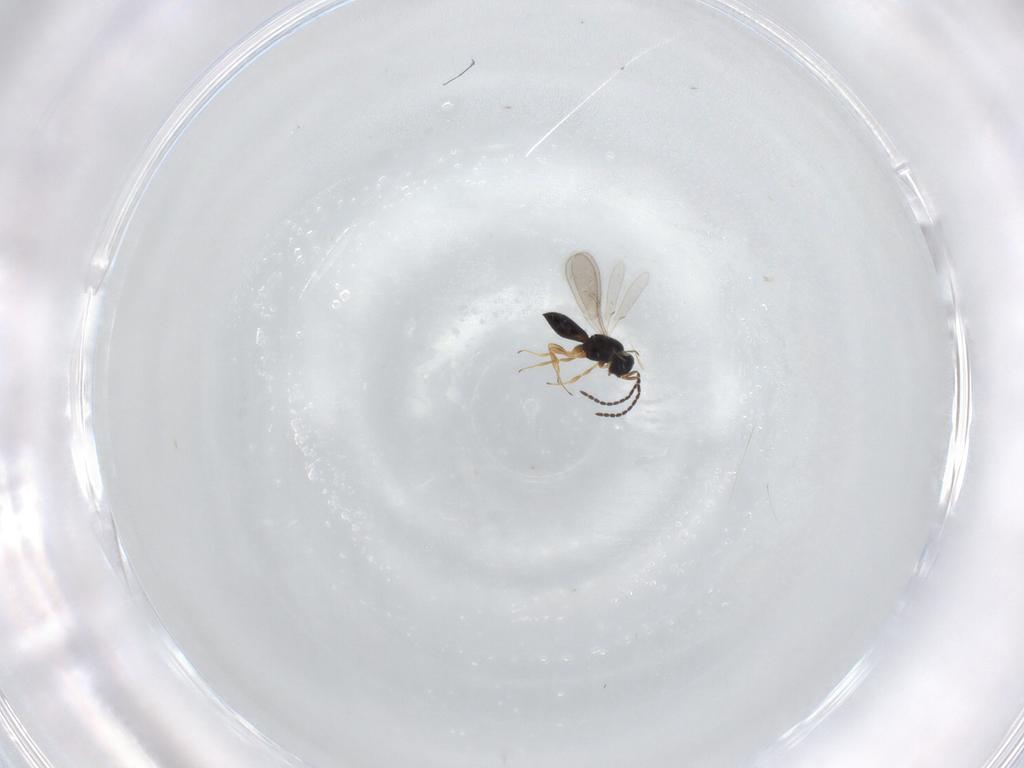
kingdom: Animalia
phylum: Arthropoda
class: Insecta
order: Hymenoptera
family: Scelionidae
